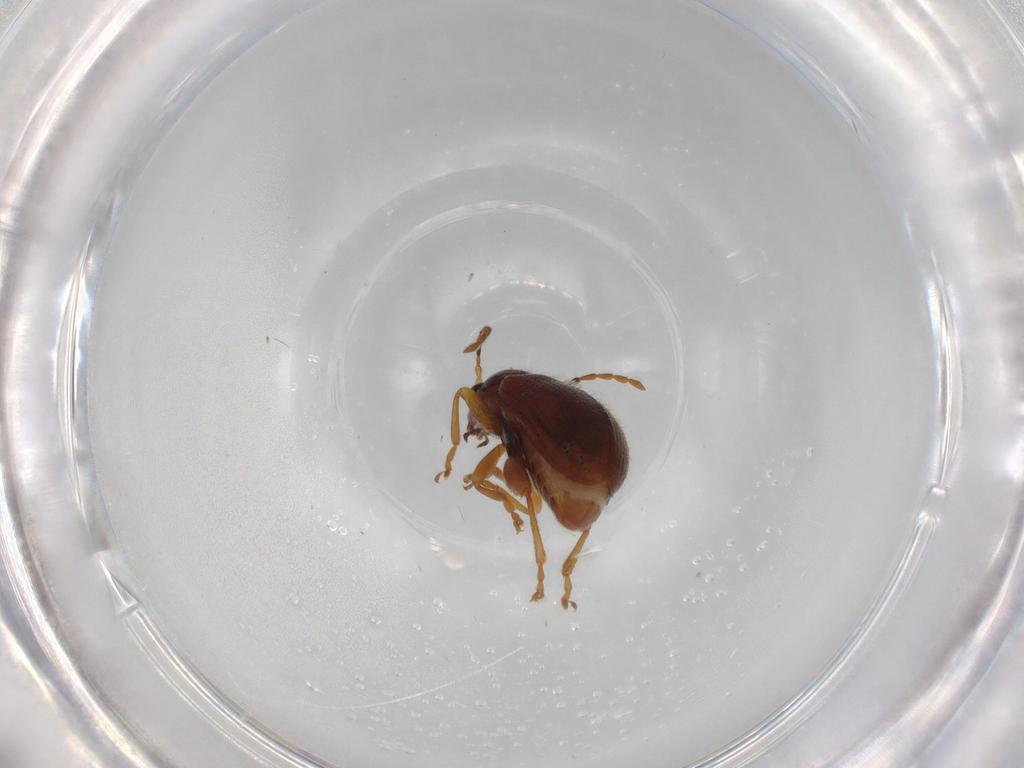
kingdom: Animalia
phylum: Arthropoda
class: Insecta
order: Coleoptera
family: Chrysomelidae
